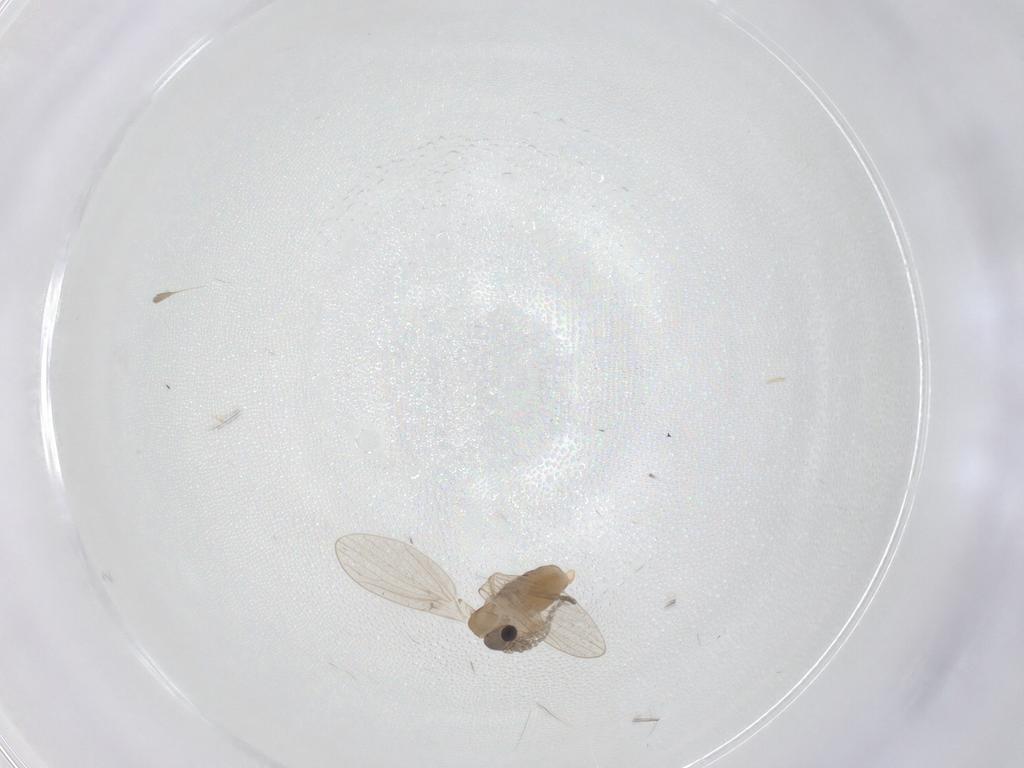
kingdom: Animalia
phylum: Arthropoda
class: Insecta
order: Diptera
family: Psychodidae
